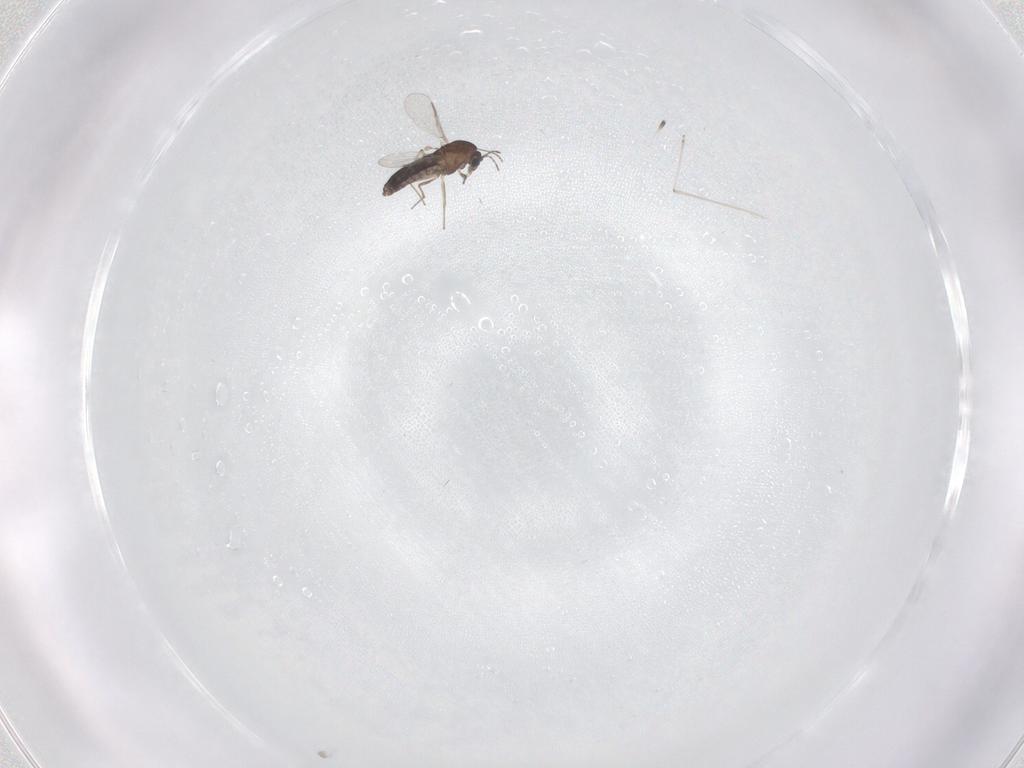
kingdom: Animalia
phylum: Arthropoda
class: Insecta
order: Diptera
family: Chironomidae
